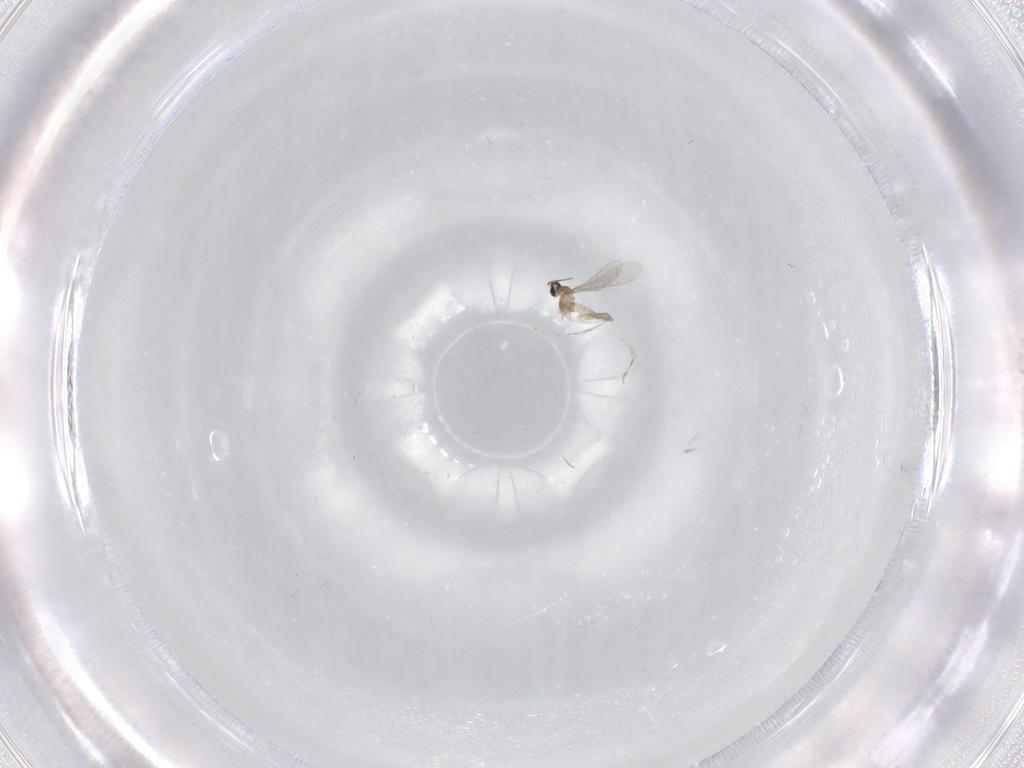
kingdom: Animalia
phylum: Arthropoda
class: Insecta
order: Diptera
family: Cecidomyiidae
